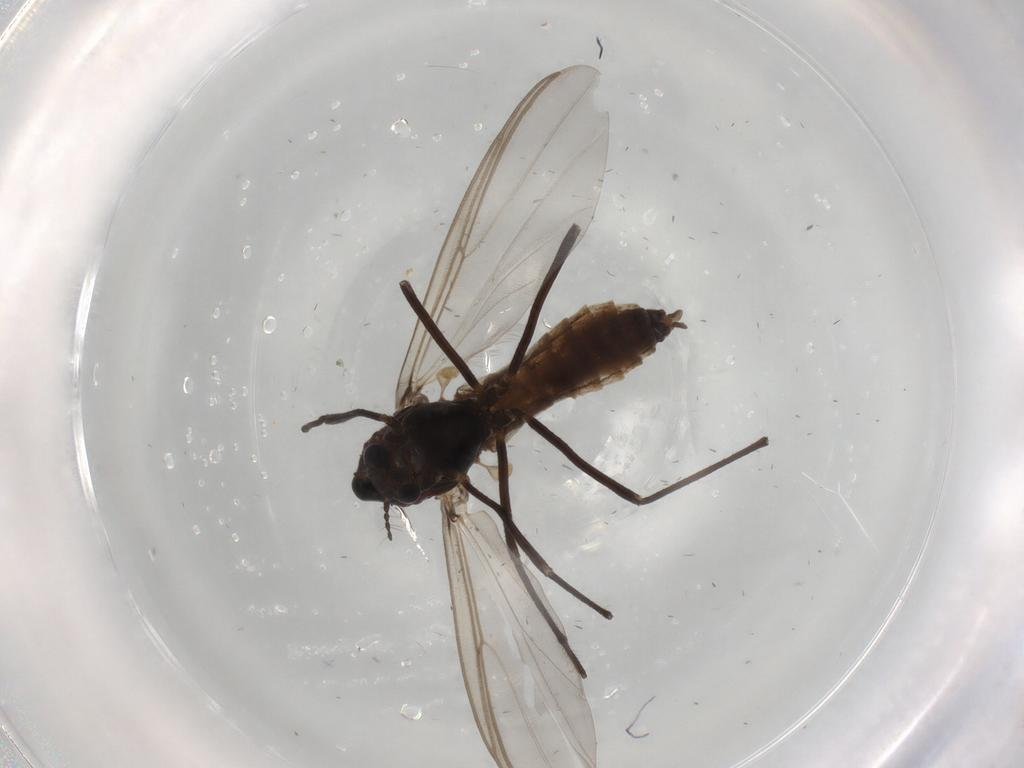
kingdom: Animalia
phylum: Arthropoda
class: Insecta
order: Diptera
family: Chironomidae
